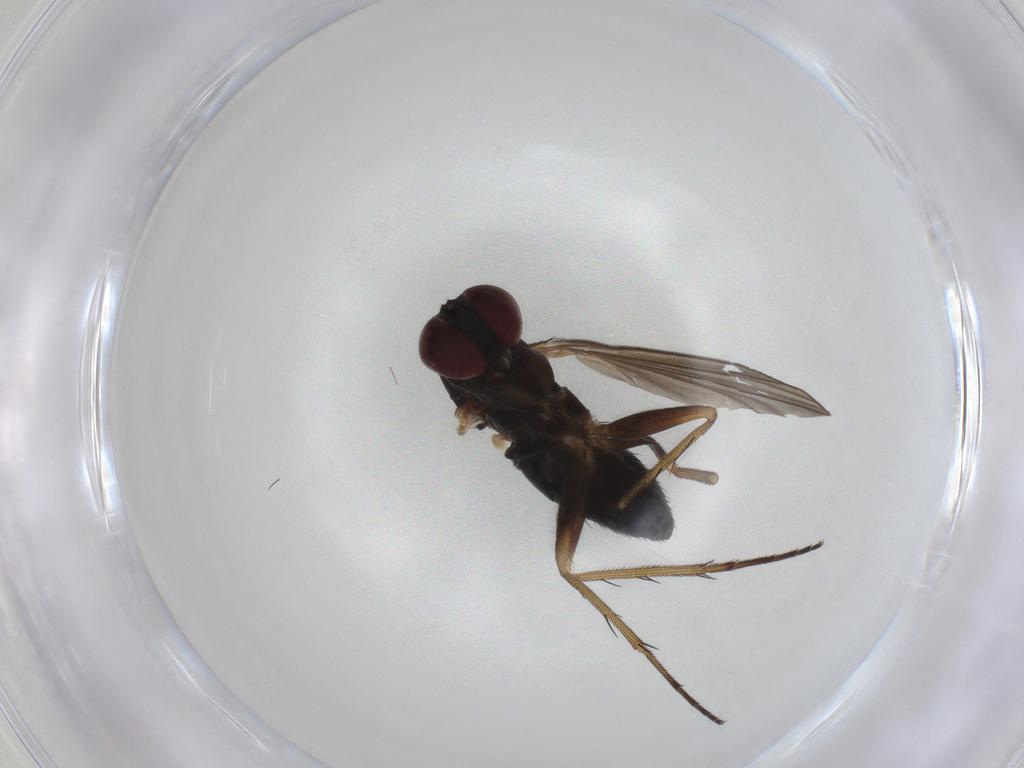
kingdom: Animalia
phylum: Arthropoda
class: Insecta
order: Diptera
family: Dolichopodidae
